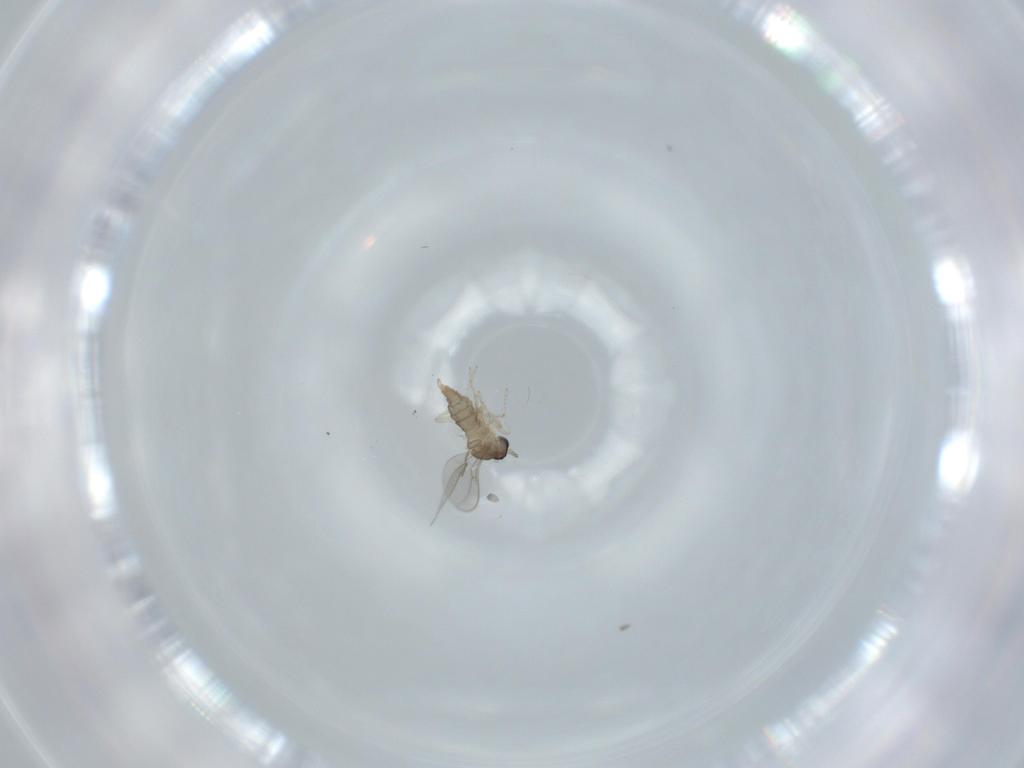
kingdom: Animalia
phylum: Arthropoda
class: Insecta
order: Diptera
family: Cecidomyiidae
